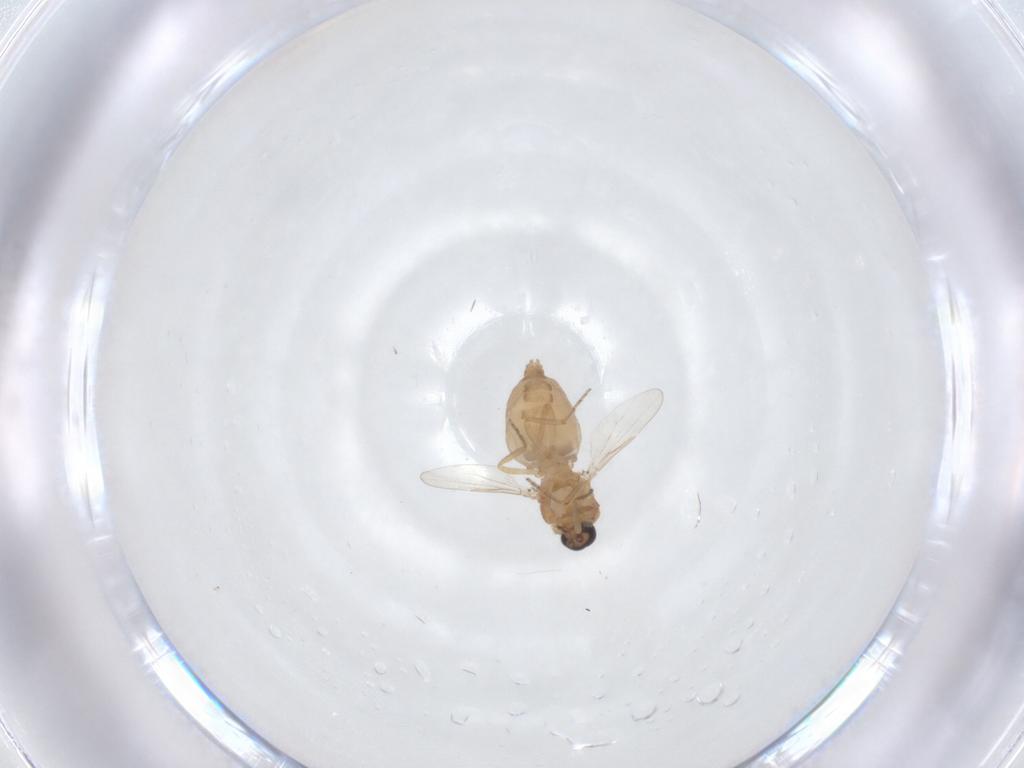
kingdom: Animalia
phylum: Arthropoda
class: Insecta
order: Diptera
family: Ceratopogonidae
